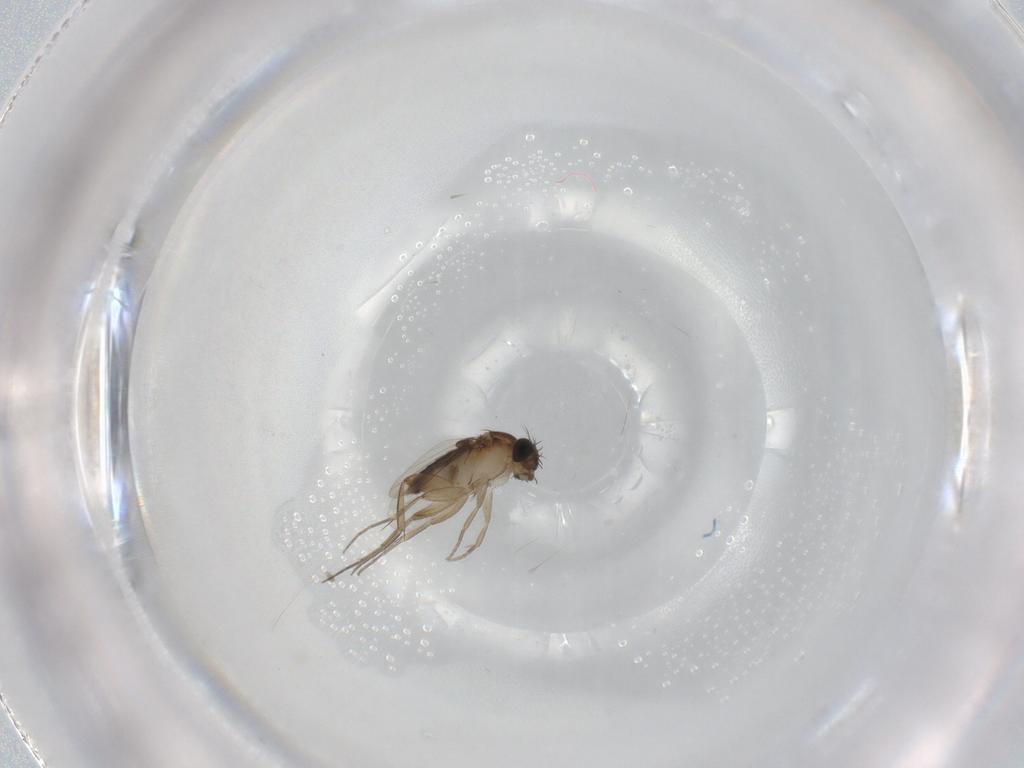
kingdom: Animalia
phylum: Arthropoda
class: Insecta
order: Diptera
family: Phoridae
